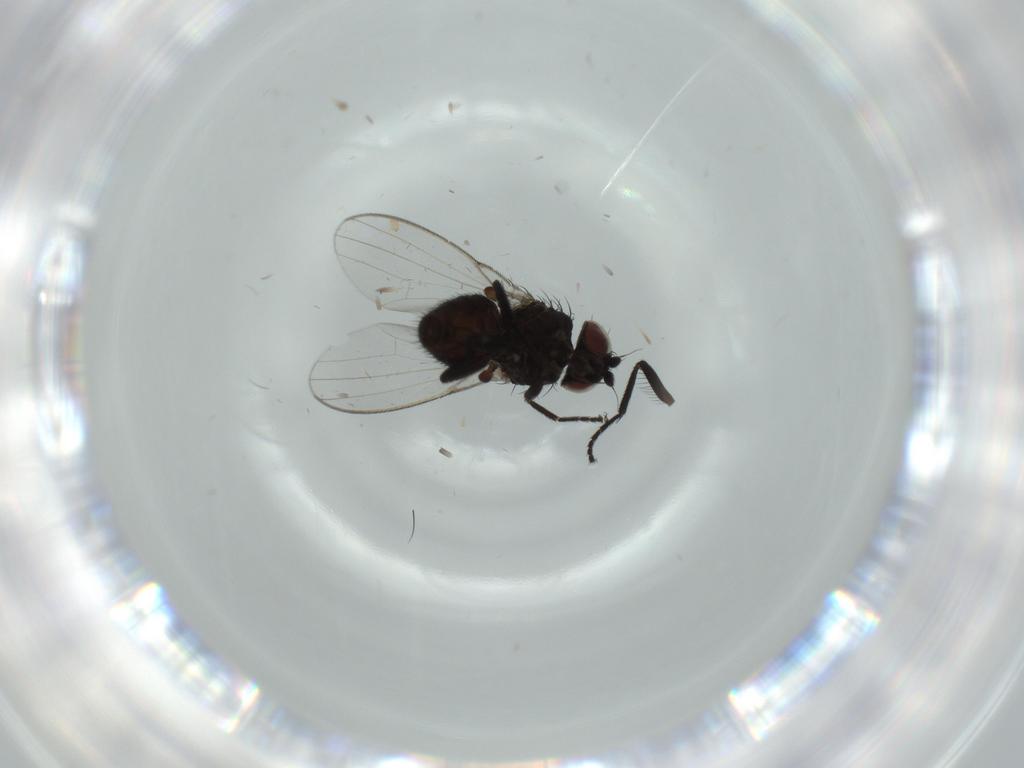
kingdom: Animalia
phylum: Arthropoda
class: Insecta
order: Diptera
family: Milichiidae
